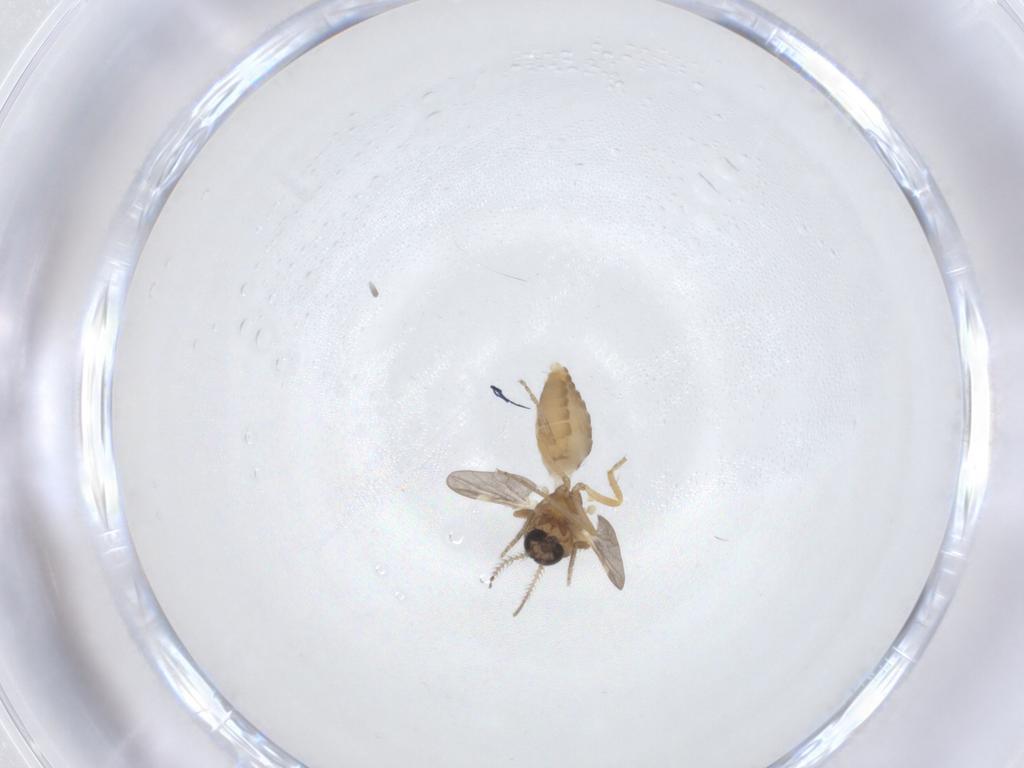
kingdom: Animalia
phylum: Arthropoda
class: Insecta
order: Diptera
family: Ceratopogonidae
